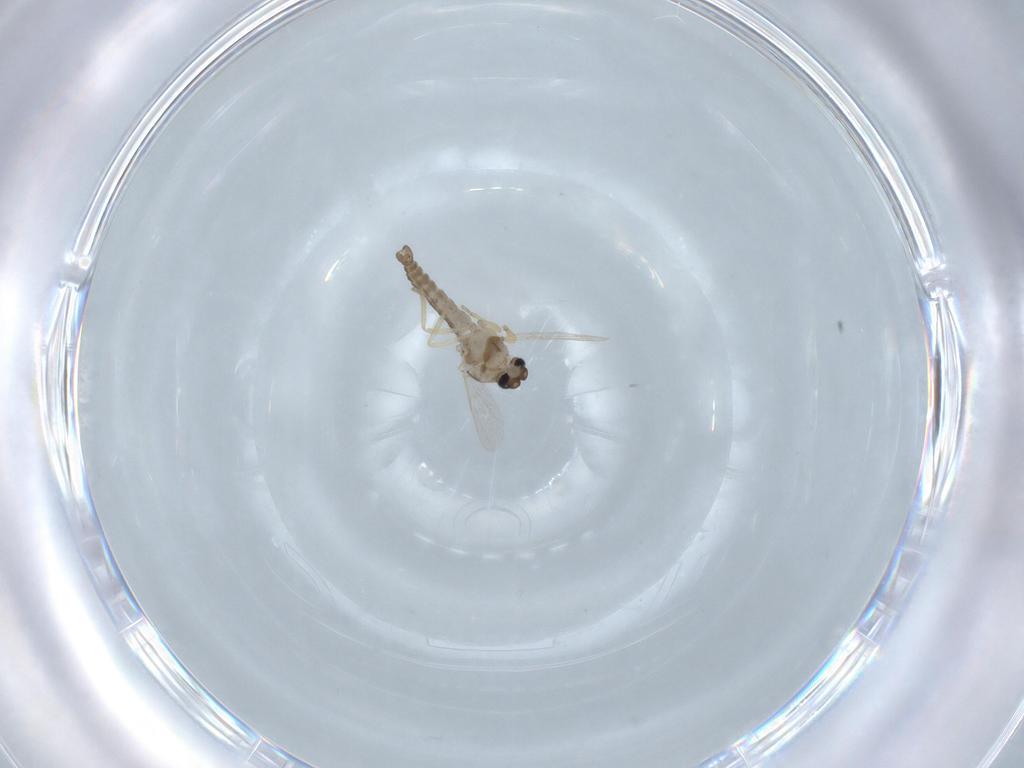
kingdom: Animalia
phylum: Arthropoda
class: Insecta
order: Diptera
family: Ceratopogonidae
